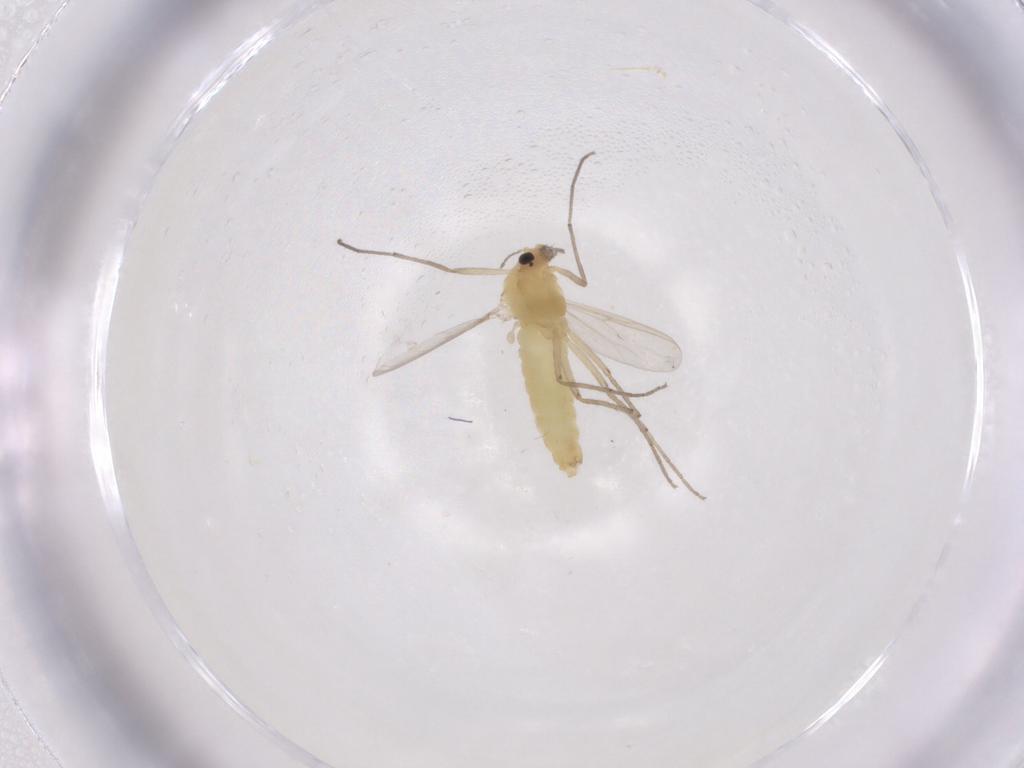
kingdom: Animalia
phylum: Arthropoda
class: Insecta
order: Diptera
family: Chironomidae
